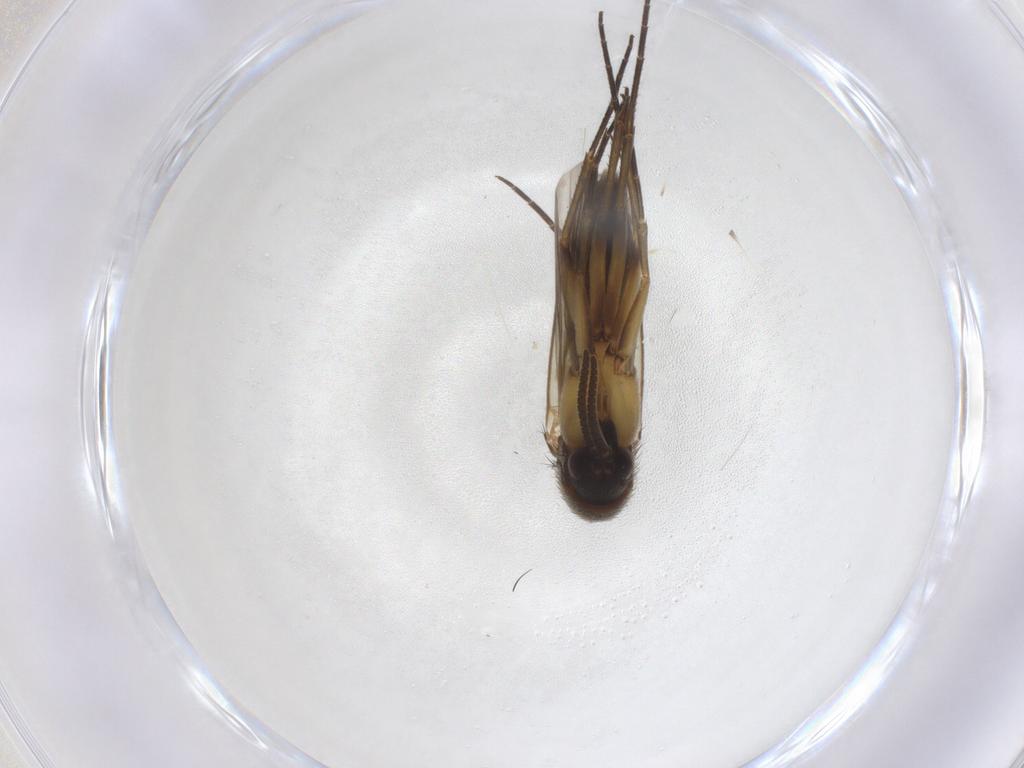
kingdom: Animalia
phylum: Arthropoda
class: Insecta
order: Diptera
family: Mycetophilidae
